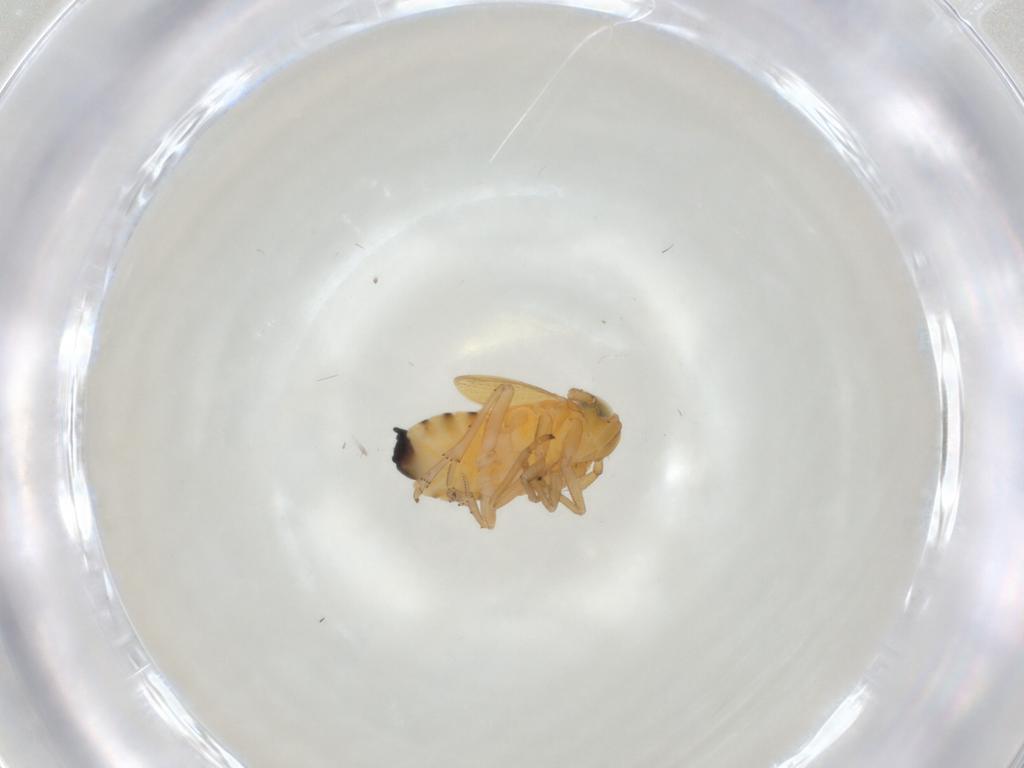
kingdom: Animalia
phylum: Arthropoda
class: Insecta
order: Hemiptera
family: Delphacidae
